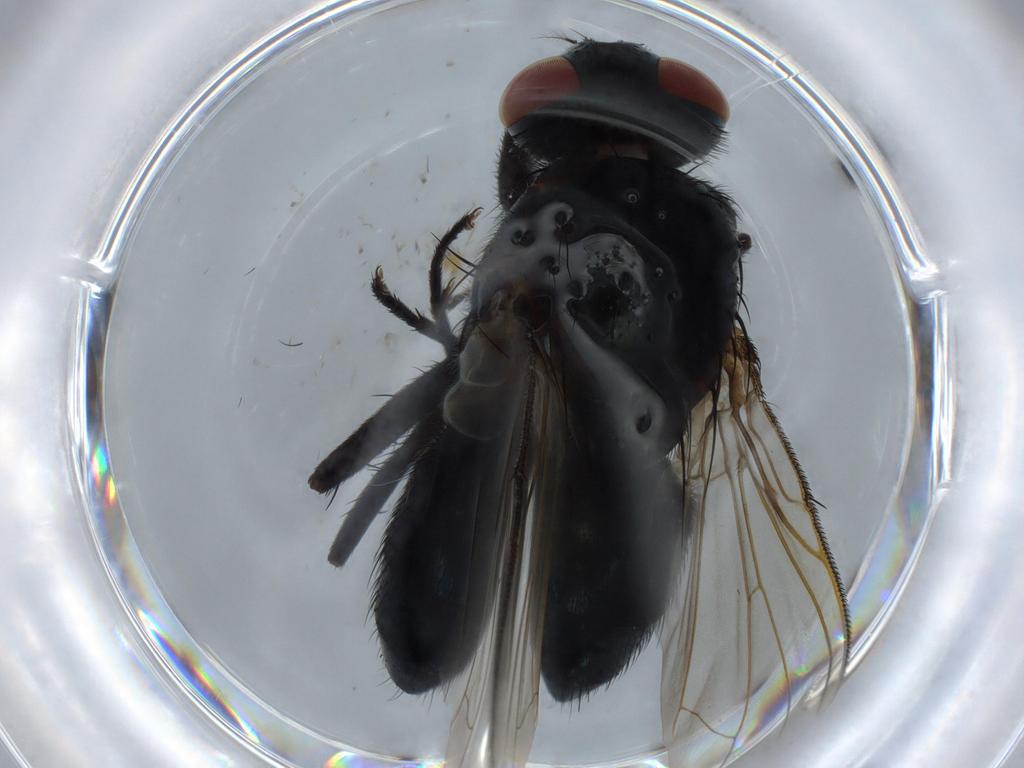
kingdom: Animalia
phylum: Arthropoda
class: Insecta
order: Diptera
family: Calliphoridae
